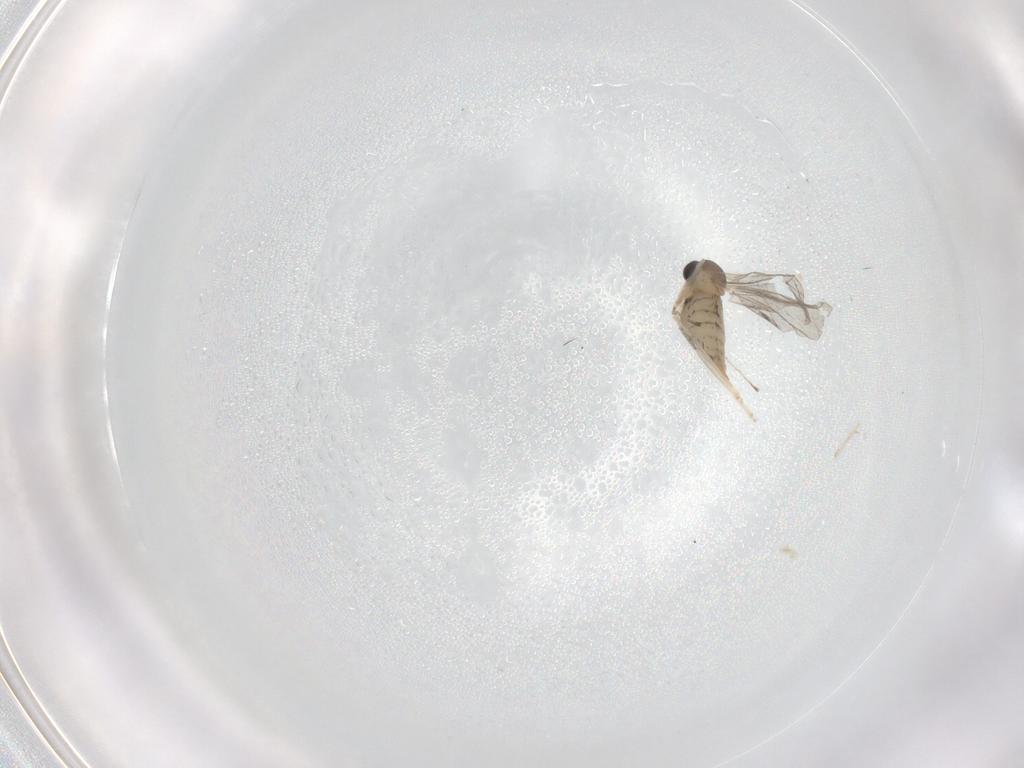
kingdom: Animalia
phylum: Arthropoda
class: Insecta
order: Diptera
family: Cecidomyiidae
